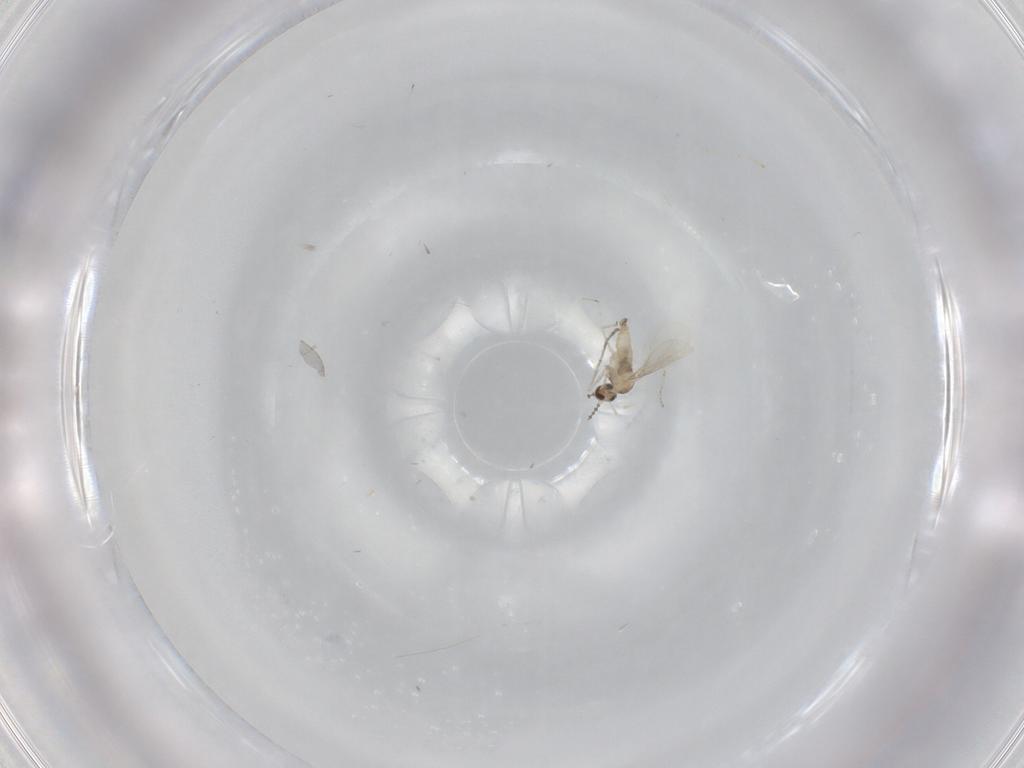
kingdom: Animalia
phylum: Arthropoda
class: Insecta
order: Diptera
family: Cecidomyiidae
